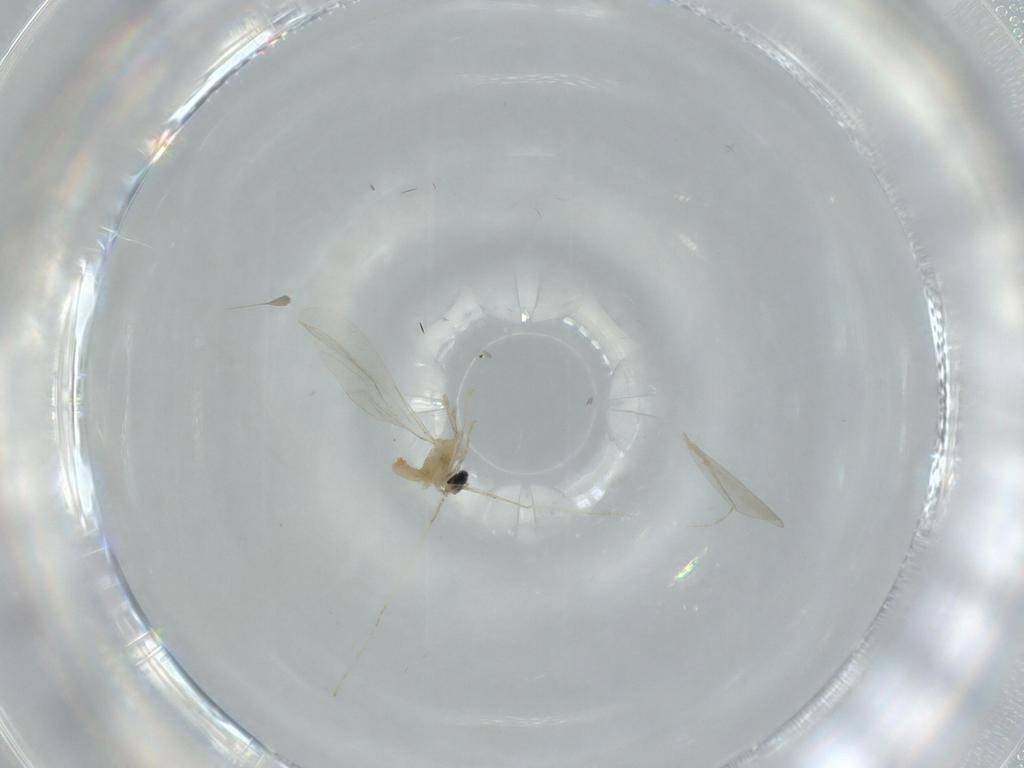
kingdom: Animalia
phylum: Arthropoda
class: Insecta
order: Diptera
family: Cecidomyiidae
